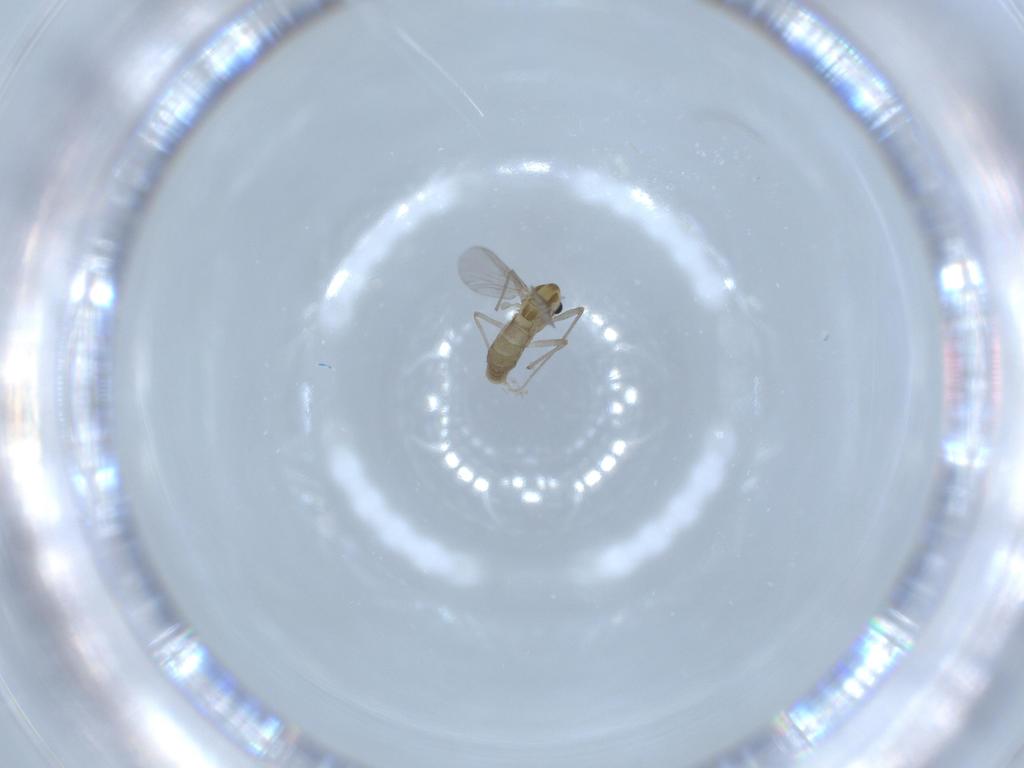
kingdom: Animalia
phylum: Arthropoda
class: Insecta
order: Diptera
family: Chironomidae
